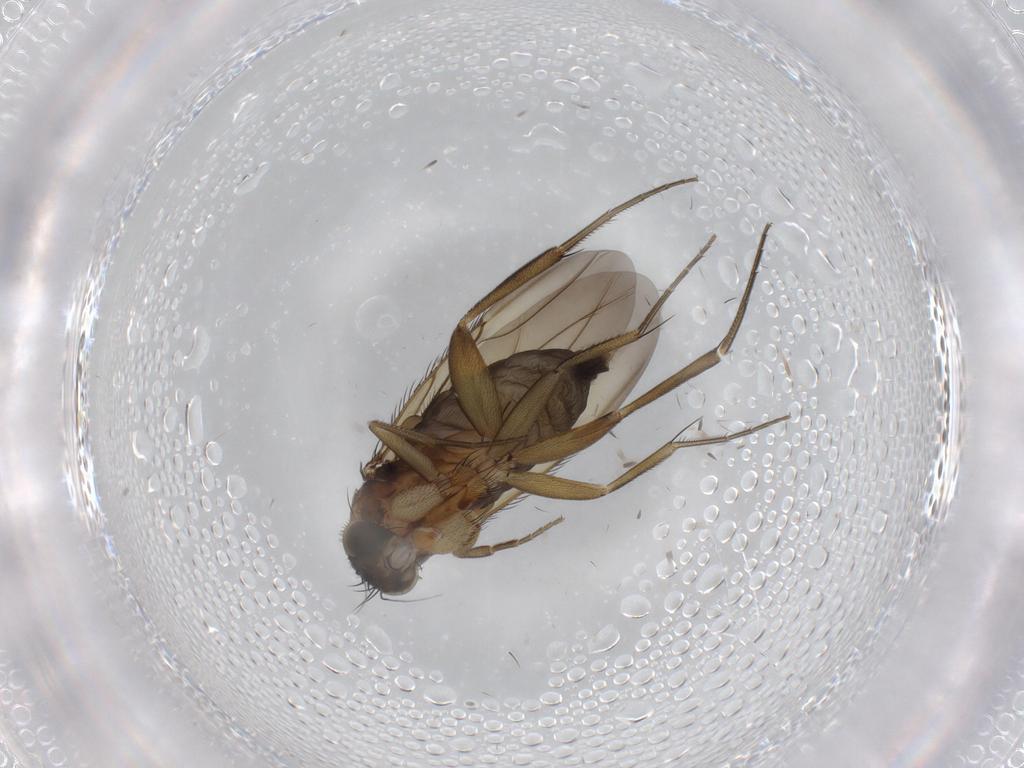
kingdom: Animalia
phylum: Arthropoda
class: Insecta
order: Diptera
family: Phoridae
